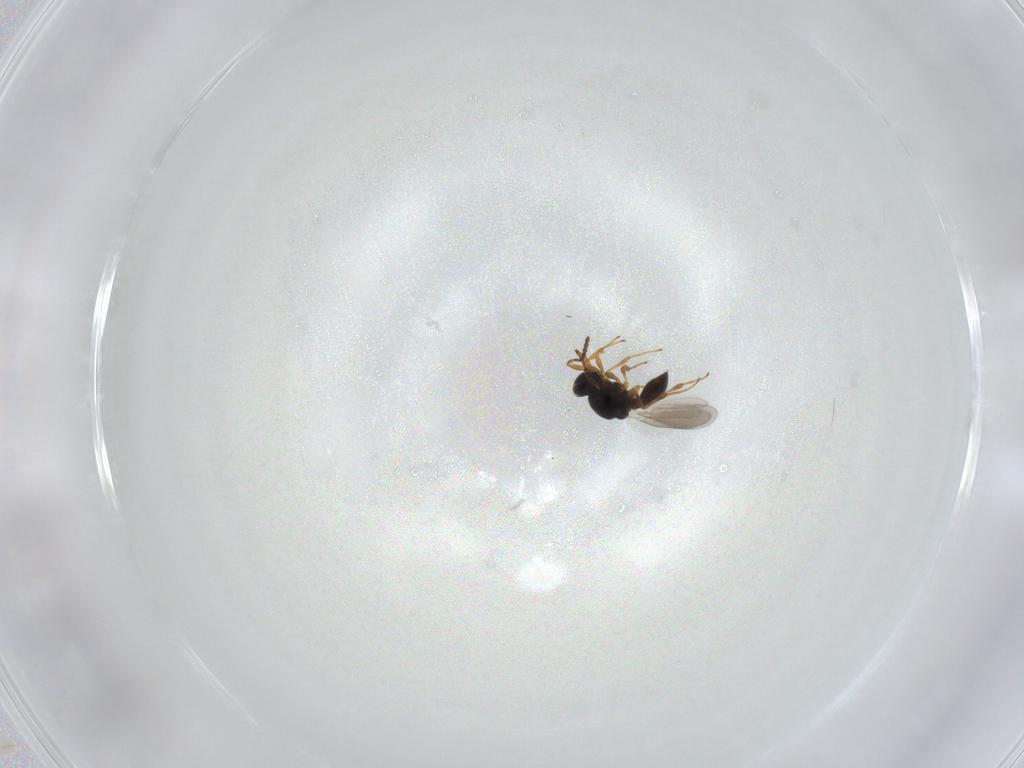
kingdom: Animalia
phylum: Arthropoda
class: Insecta
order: Hymenoptera
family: Platygastridae
